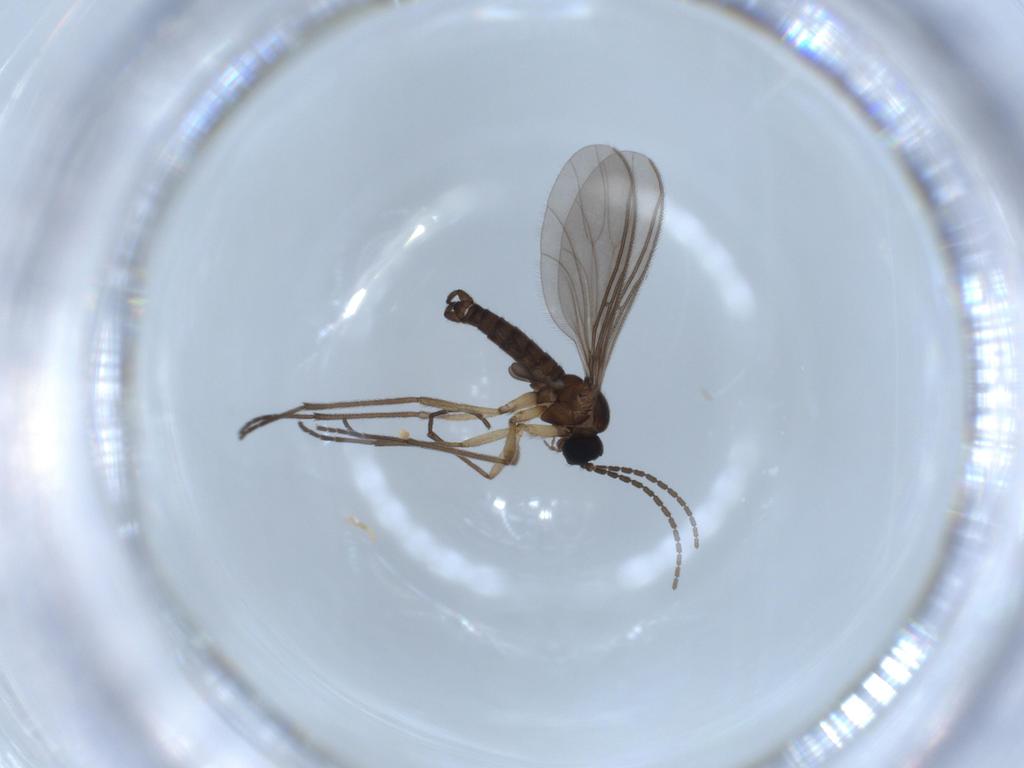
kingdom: Animalia
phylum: Arthropoda
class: Insecta
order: Diptera
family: Sciaridae
